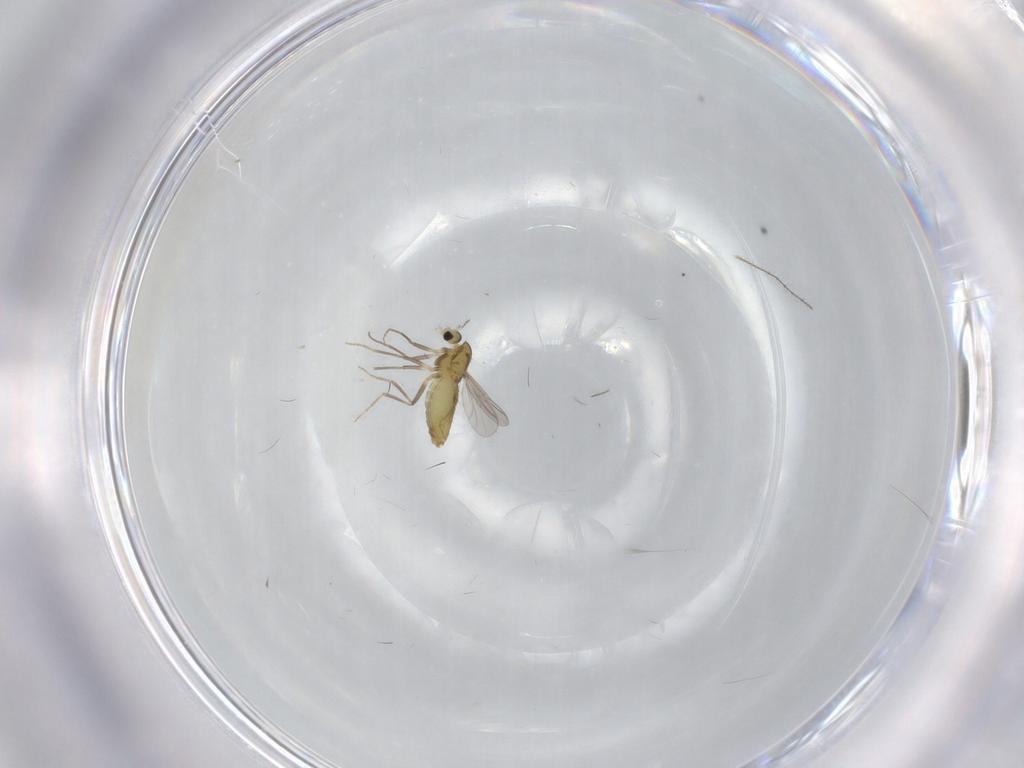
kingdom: Animalia
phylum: Arthropoda
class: Insecta
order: Diptera
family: Chironomidae
